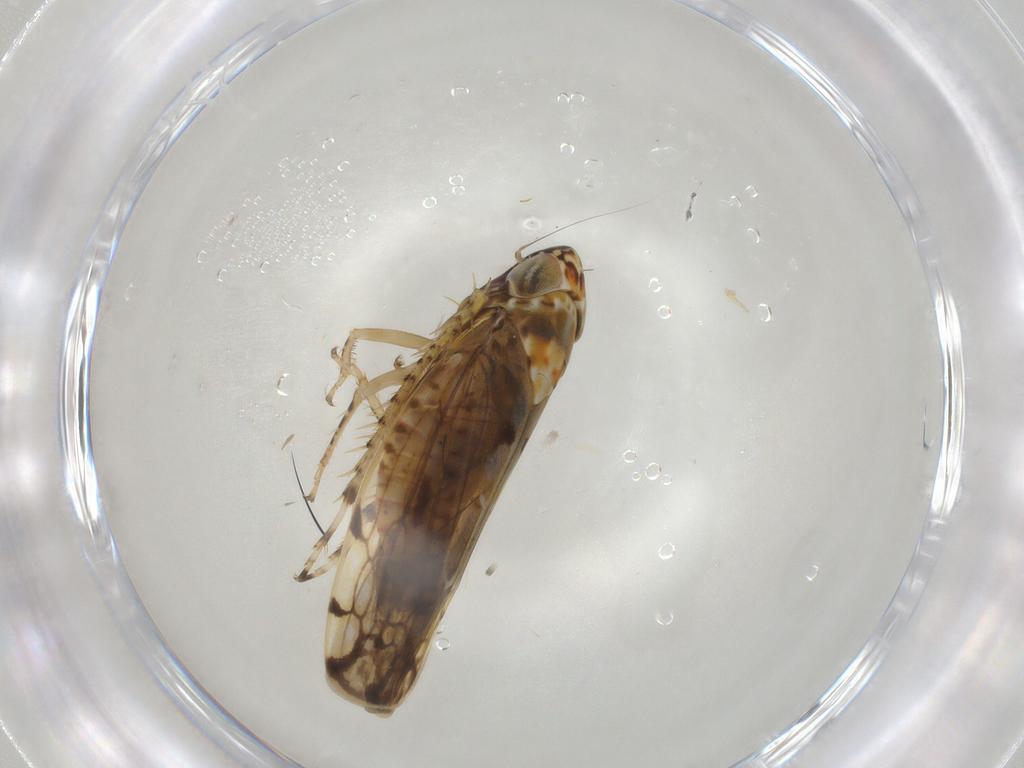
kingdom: Animalia
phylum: Arthropoda
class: Insecta
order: Hemiptera
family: Cicadellidae
